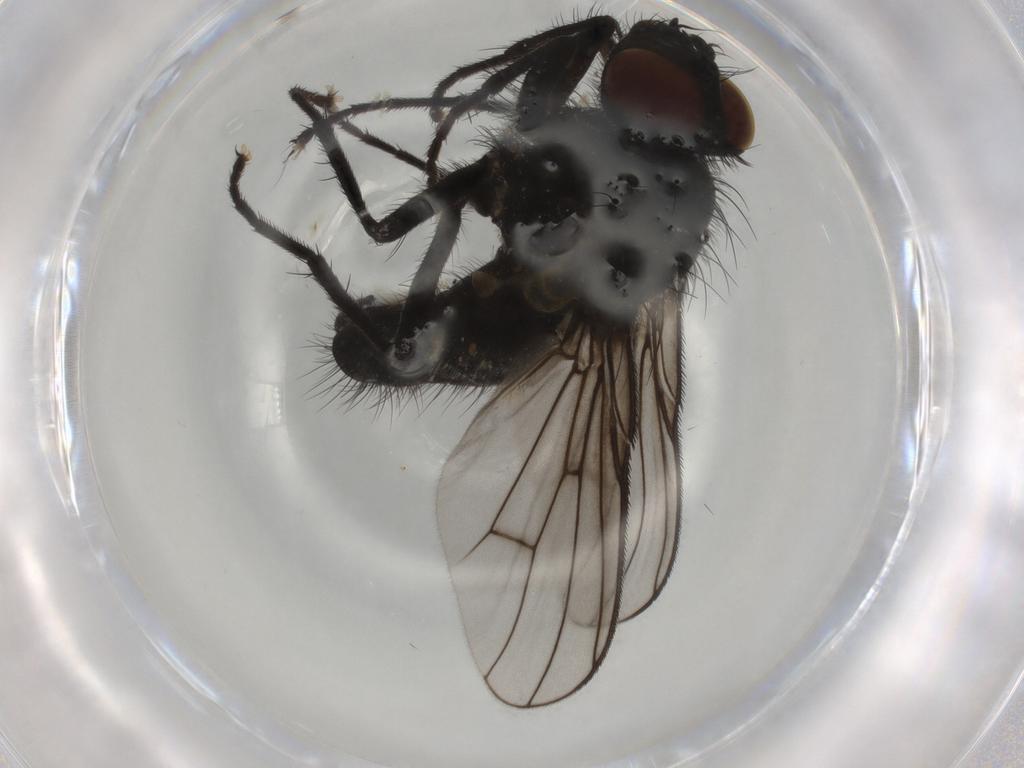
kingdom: Animalia
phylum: Arthropoda
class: Insecta
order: Diptera
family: Muscidae
